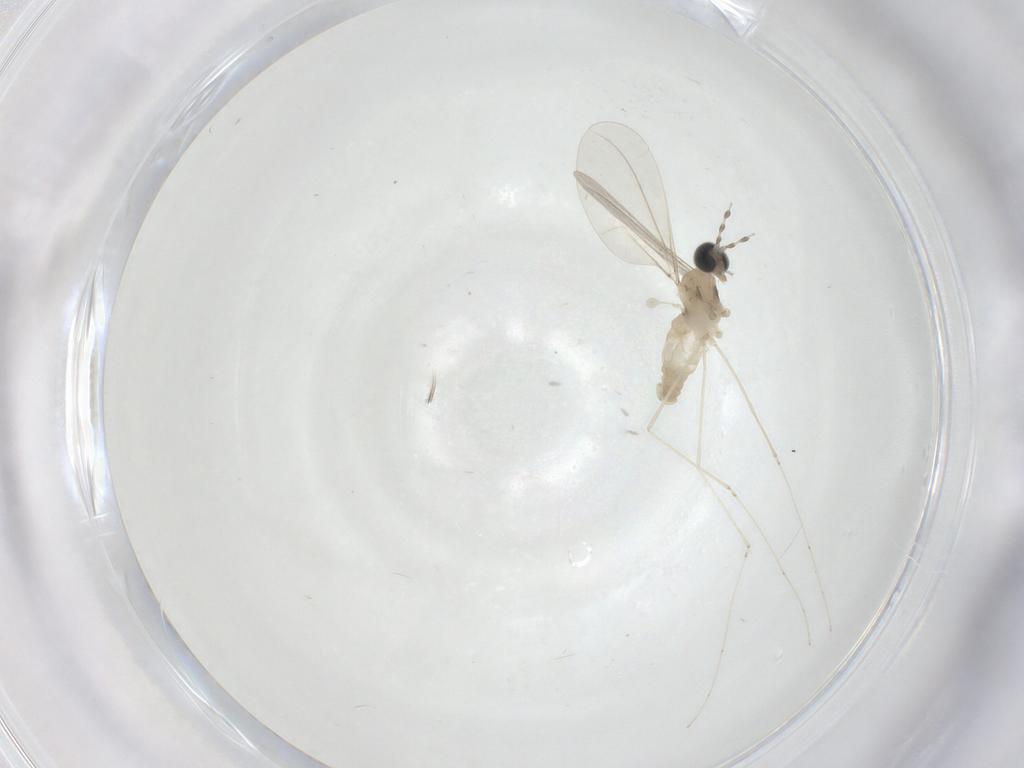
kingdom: Animalia
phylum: Arthropoda
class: Insecta
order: Diptera
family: Cecidomyiidae
